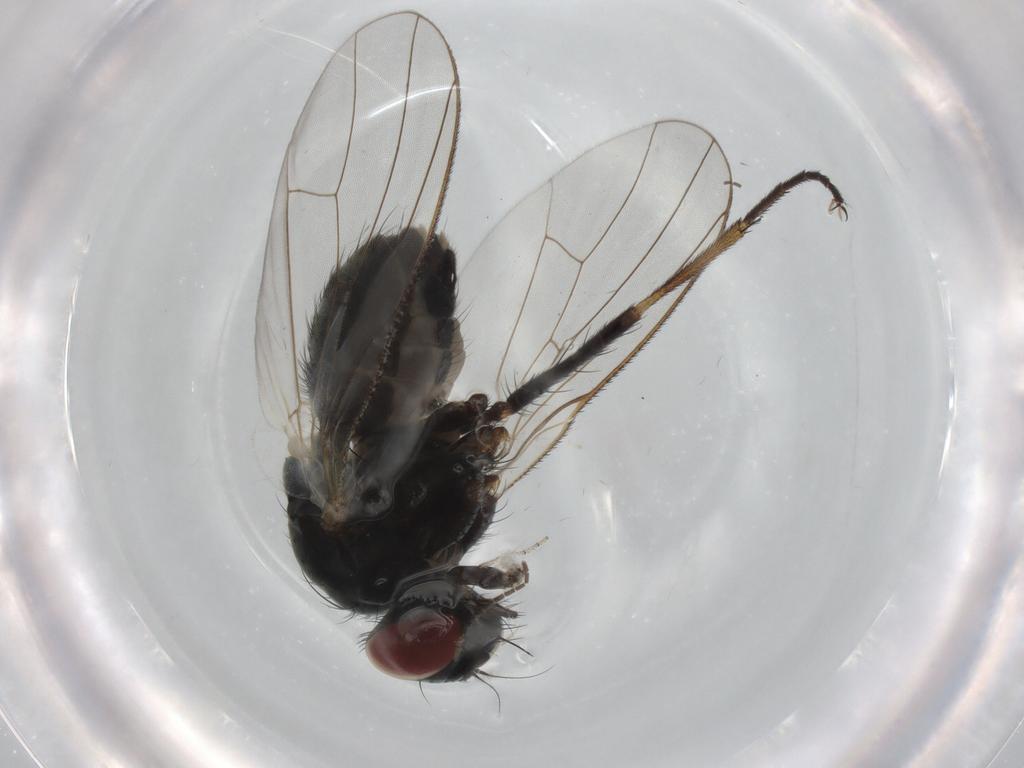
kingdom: Animalia
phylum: Arthropoda
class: Insecta
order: Diptera
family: Muscidae
